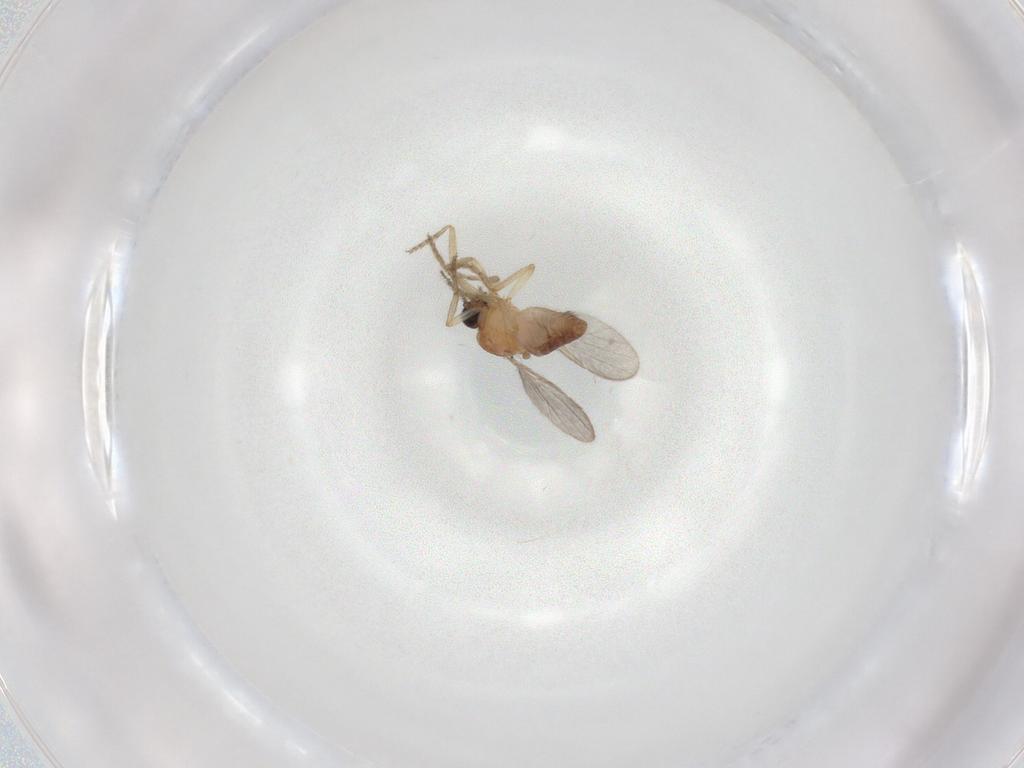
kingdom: Animalia
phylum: Arthropoda
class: Insecta
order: Diptera
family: Ceratopogonidae
